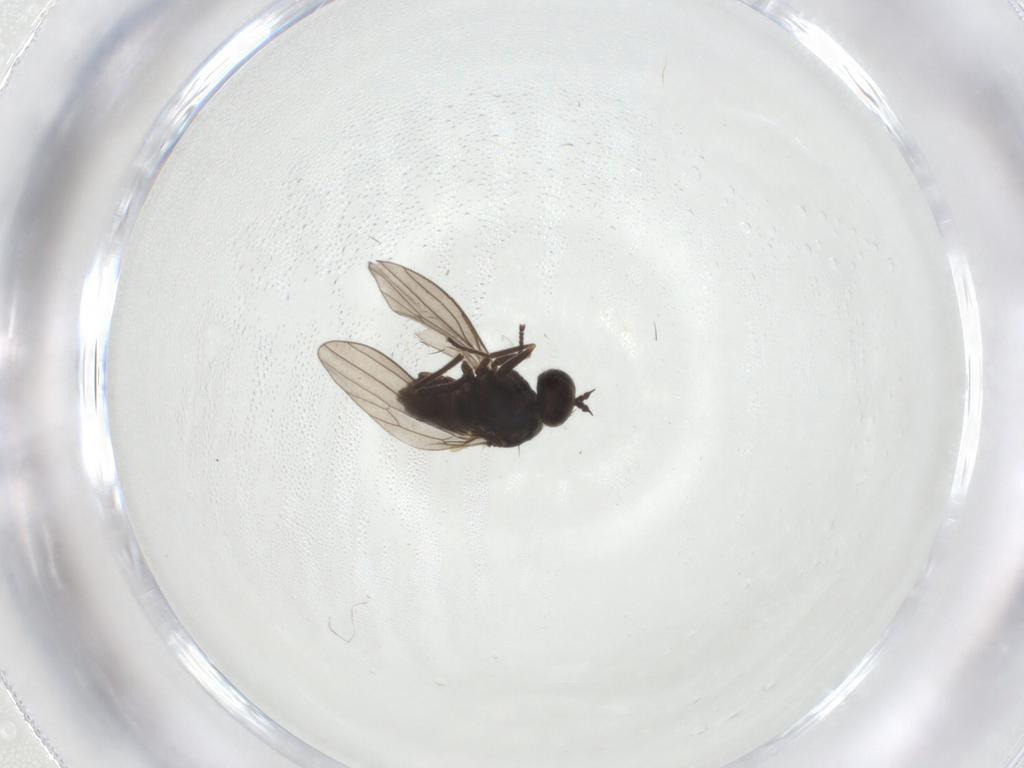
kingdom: Animalia
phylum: Arthropoda
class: Insecta
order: Diptera
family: Dolichopodidae
